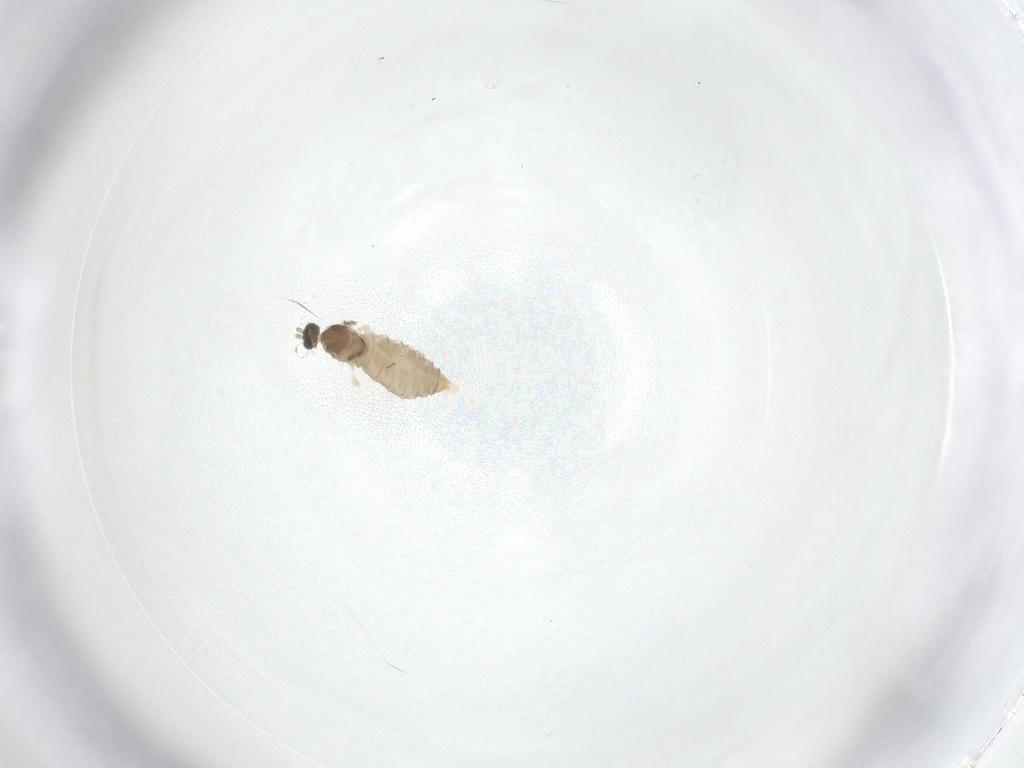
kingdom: Animalia
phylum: Arthropoda
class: Insecta
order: Diptera
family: Cecidomyiidae
